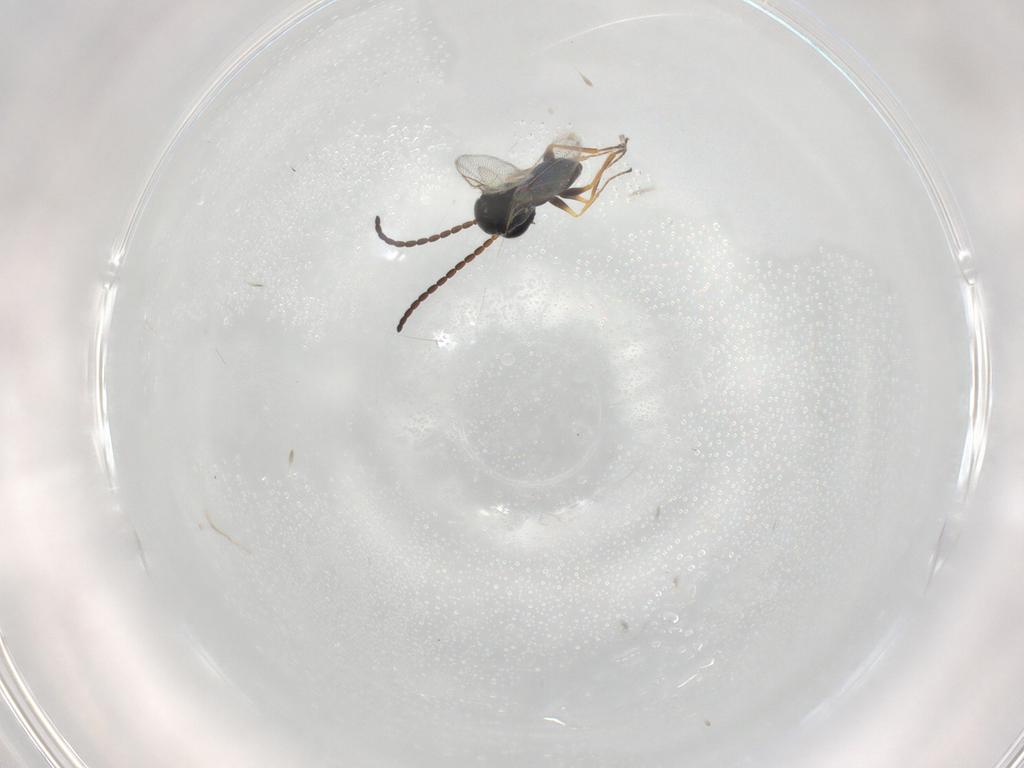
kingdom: Animalia
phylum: Arthropoda
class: Insecta
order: Hymenoptera
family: Figitidae
